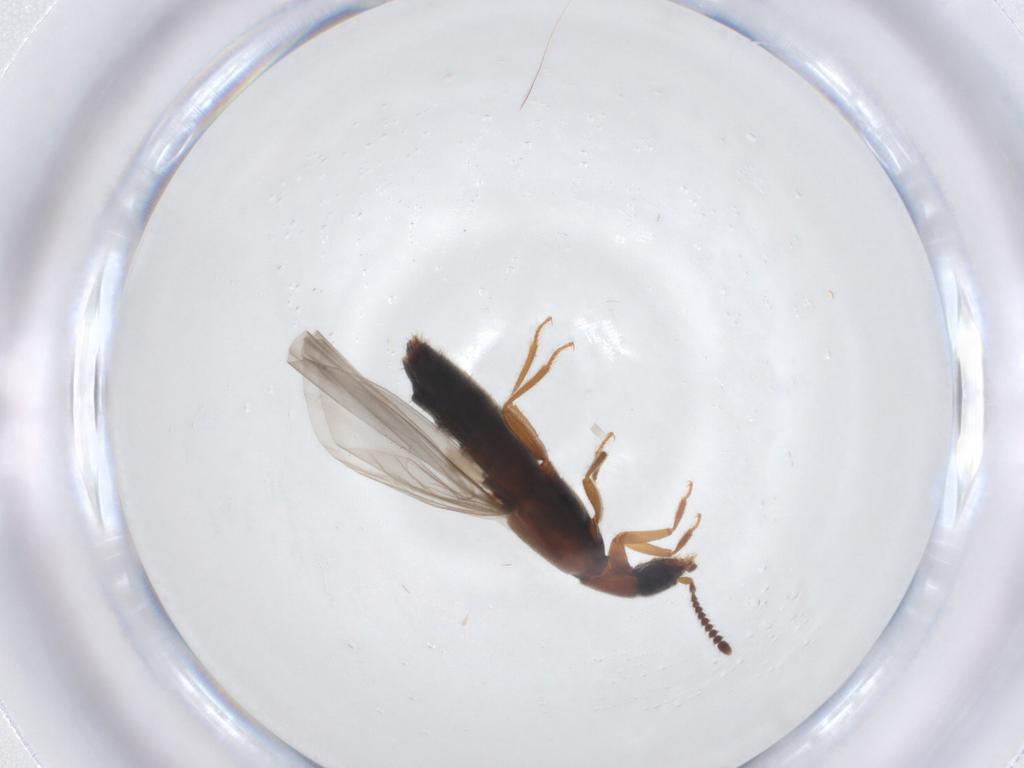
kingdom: Animalia
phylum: Arthropoda
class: Insecta
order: Coleoptera
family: Staphylinidae
